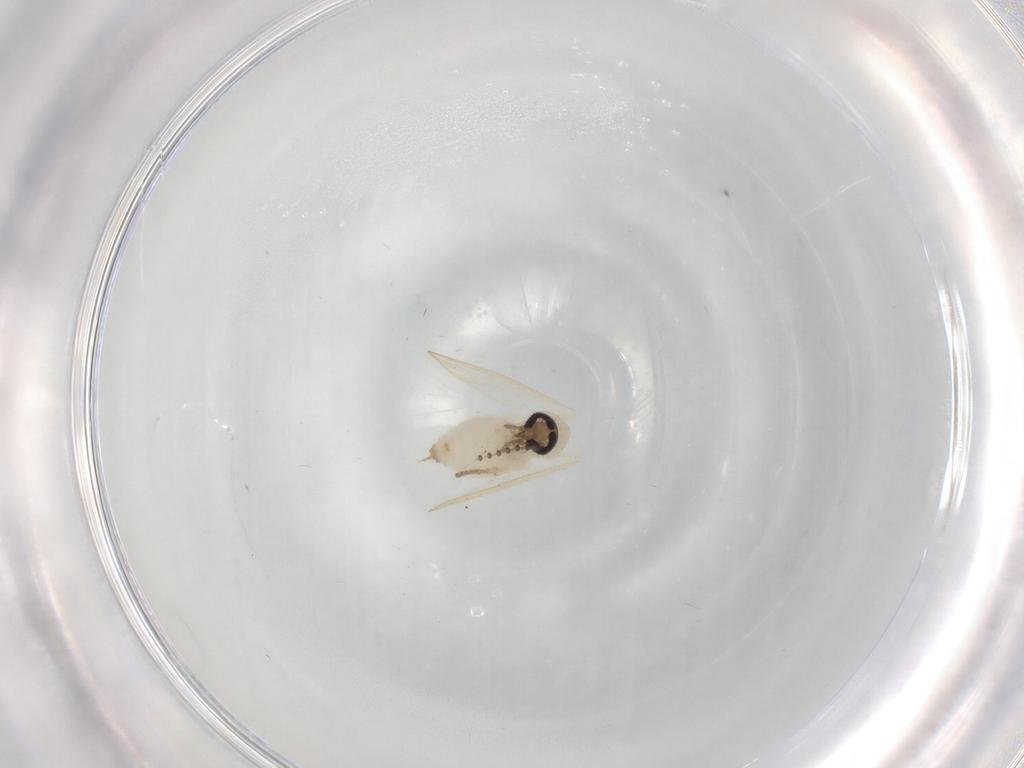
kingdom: Animalia
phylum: Arthropoda
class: Insecta
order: Diptera
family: Psychodidae
